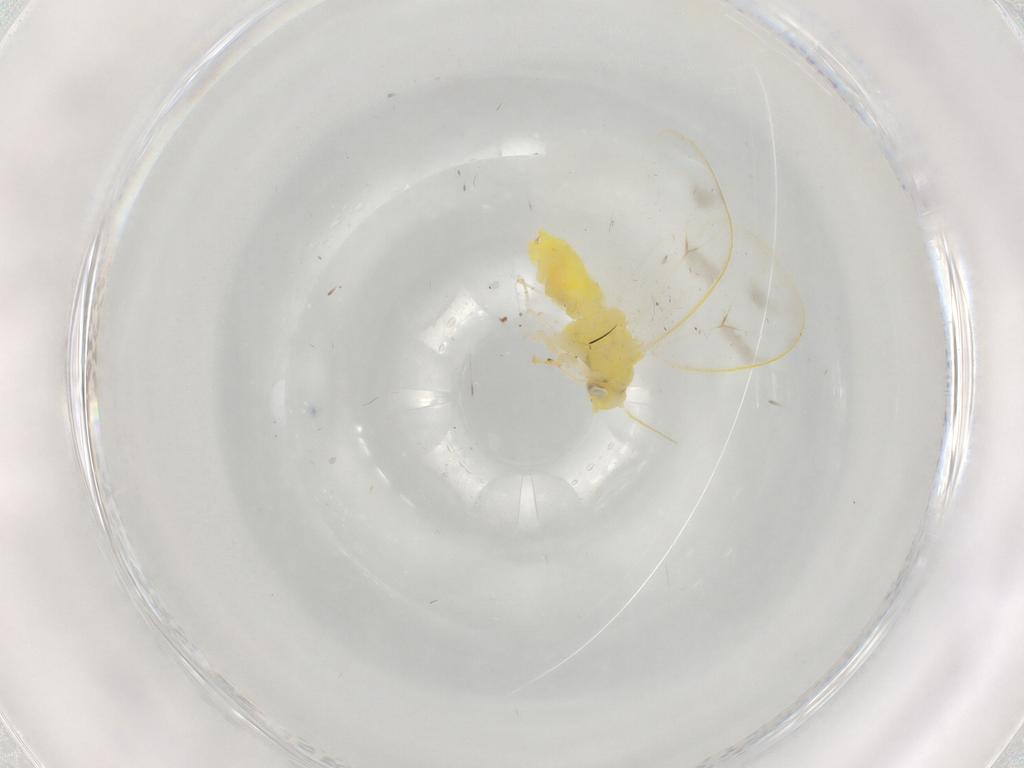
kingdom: Animalia
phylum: Arthropoda
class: Insecta
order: Hemiptera
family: Aleyrodidae
